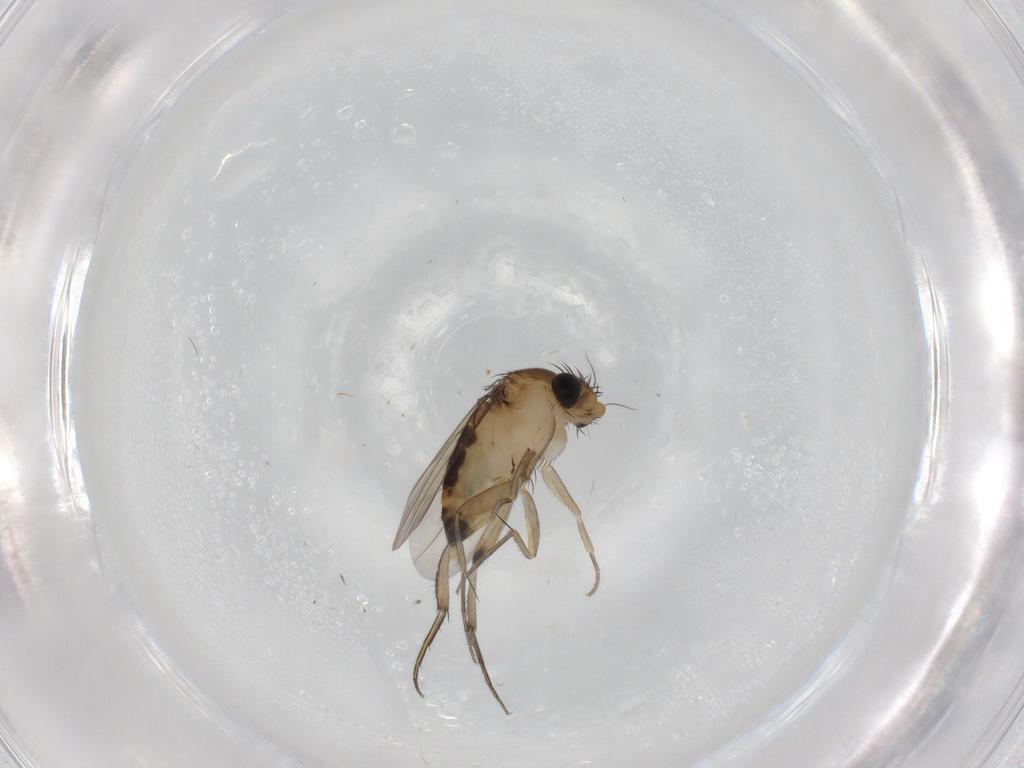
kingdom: Animalia
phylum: Arthropoda
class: Insecta
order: Diptera
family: Phoridae
